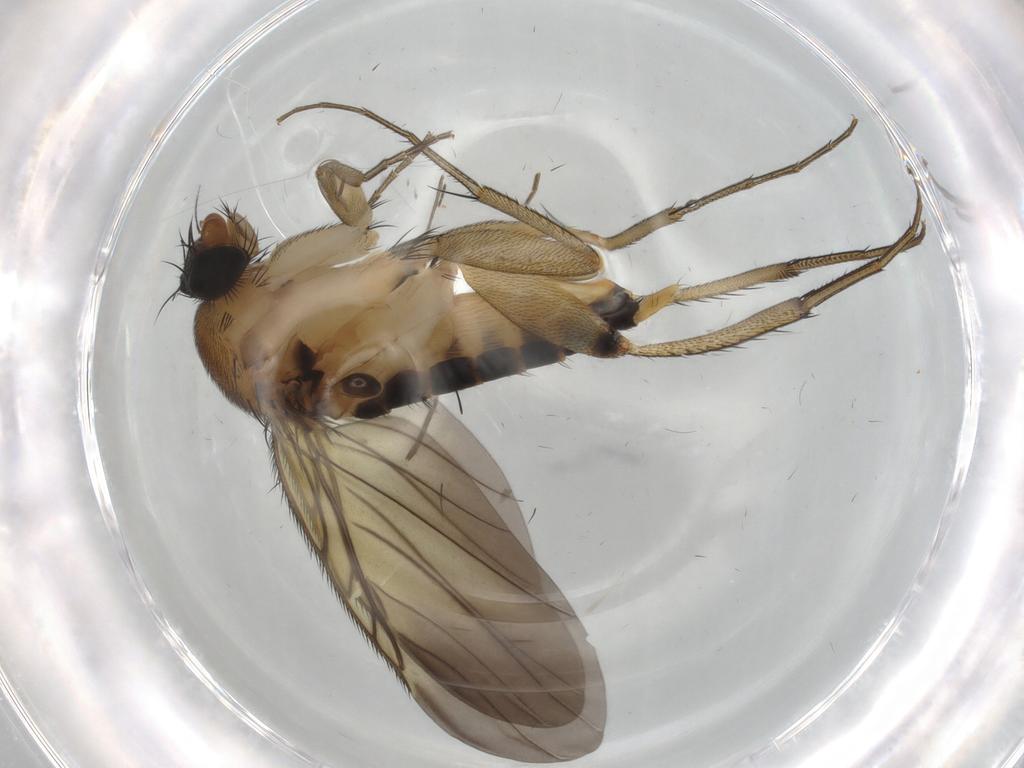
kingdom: Animalia
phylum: Arthropoda
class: Insecta
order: Diptera
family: Chironomidae
